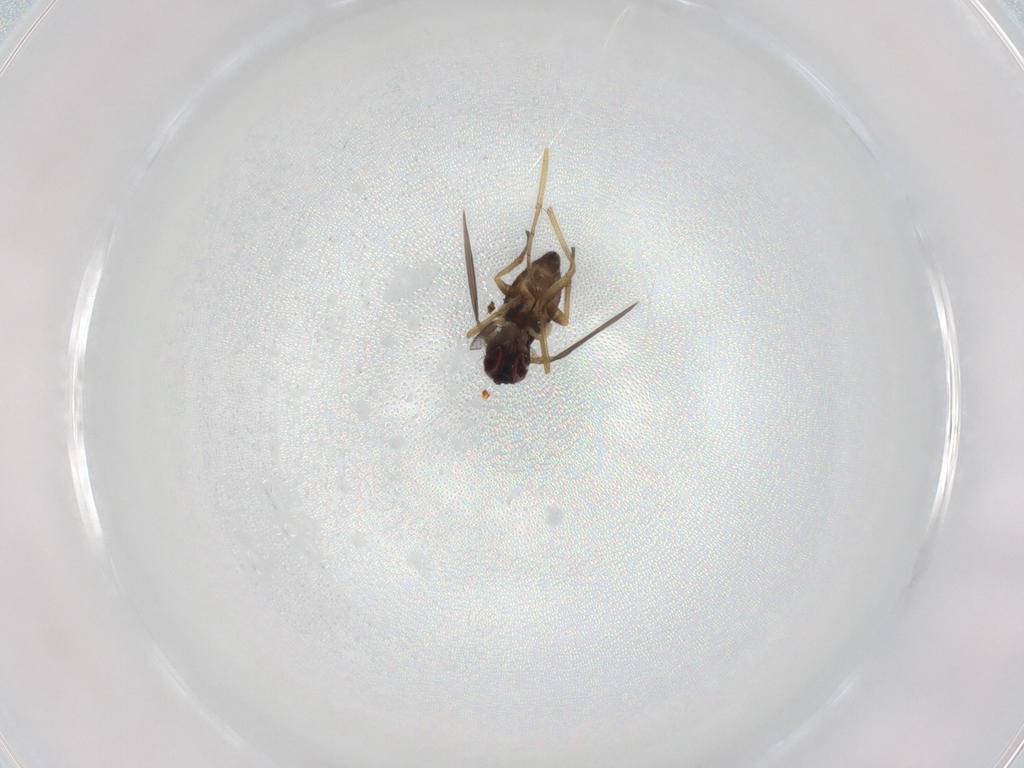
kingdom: Animalia
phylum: Arthropoda
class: Insecta
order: Diptera
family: Dolichopodidae
